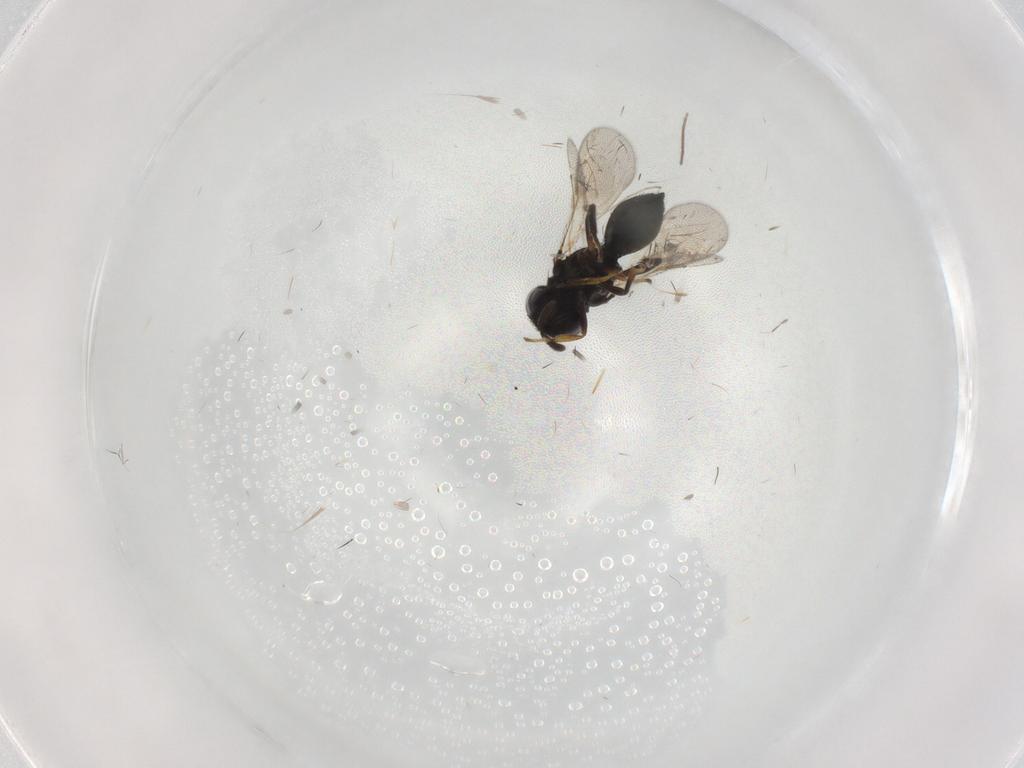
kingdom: Animalia
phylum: Arthropoda
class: Insecta
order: Hymenoptera
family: Pteromalidae
